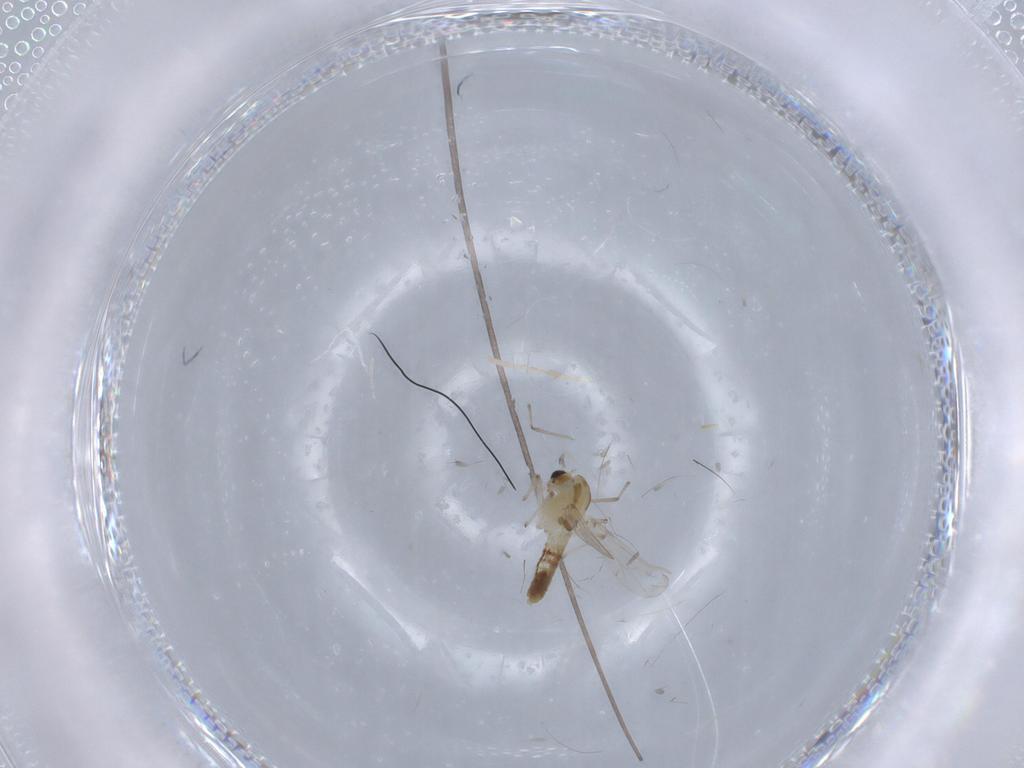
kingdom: Animalia
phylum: Arthropoda
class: Insecta
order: Diptera
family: Chironomidae
